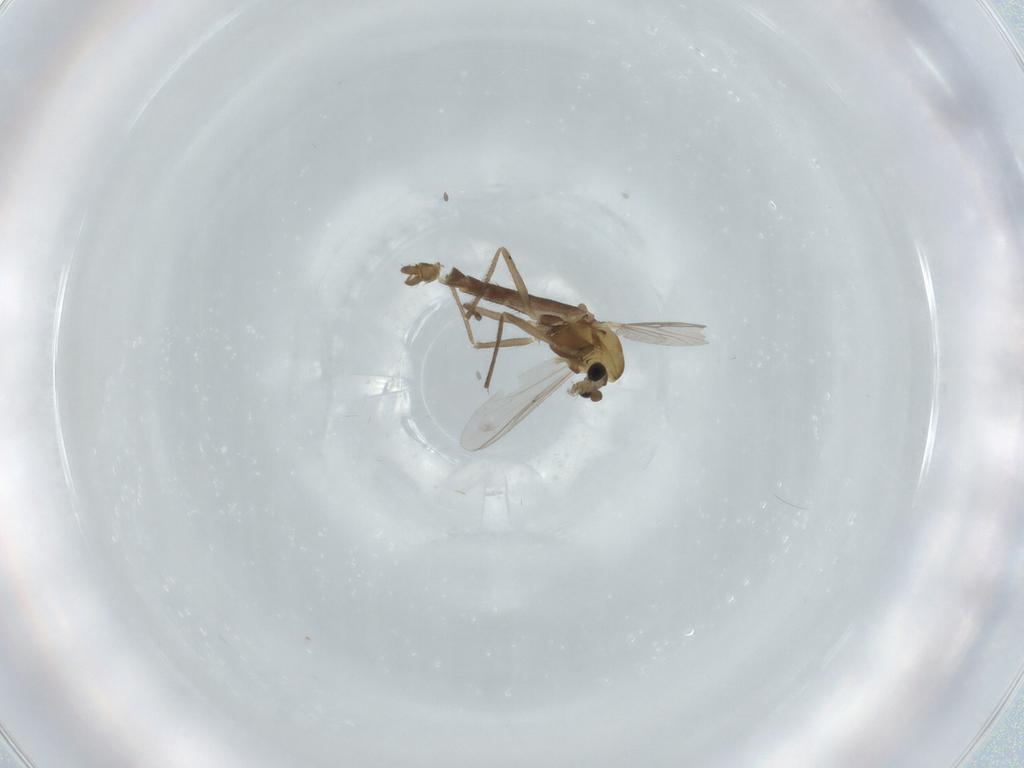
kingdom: Animalia
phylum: Arthropoda
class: Insecta
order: Diptera
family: Chironomidae
